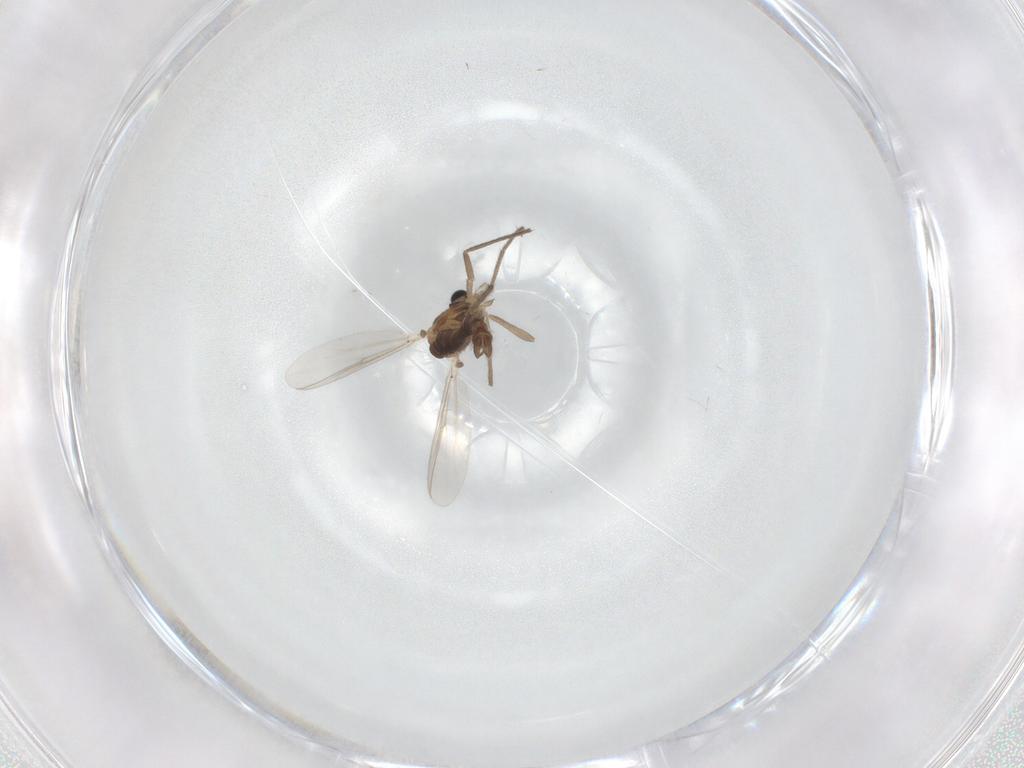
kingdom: Animalia
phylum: Arthropoda
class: Insecta
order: Diptera
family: Chironomidae
